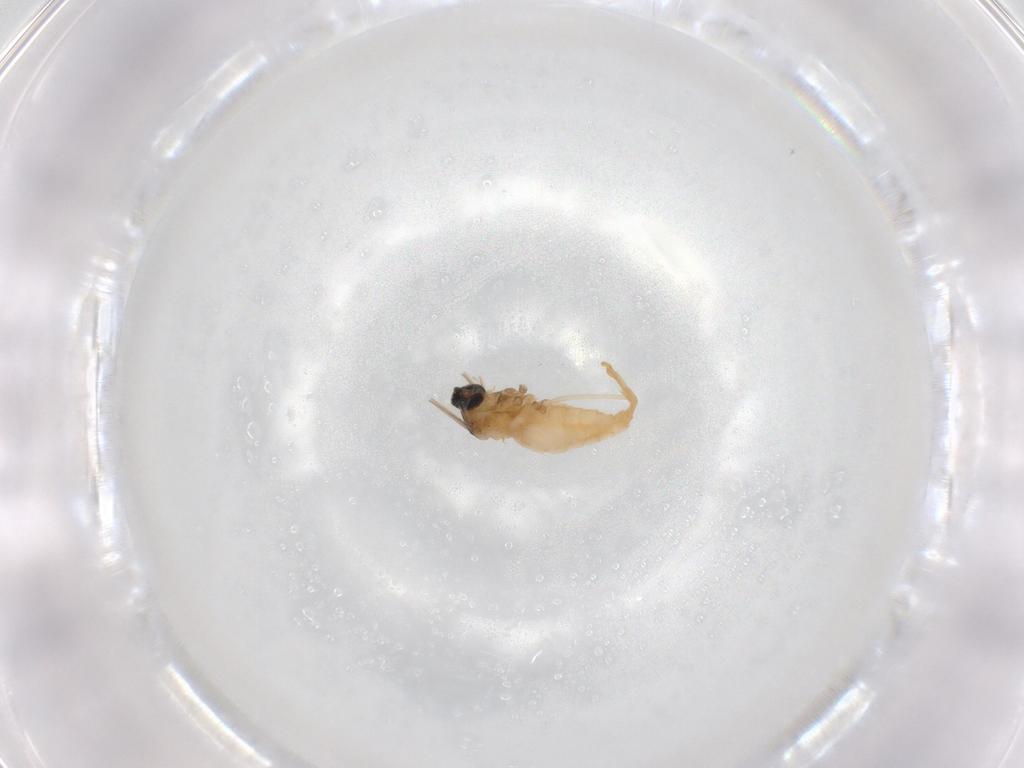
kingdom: Animalia
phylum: Arthropoda
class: Insecta
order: Diptera
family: Cecidomyiidae
